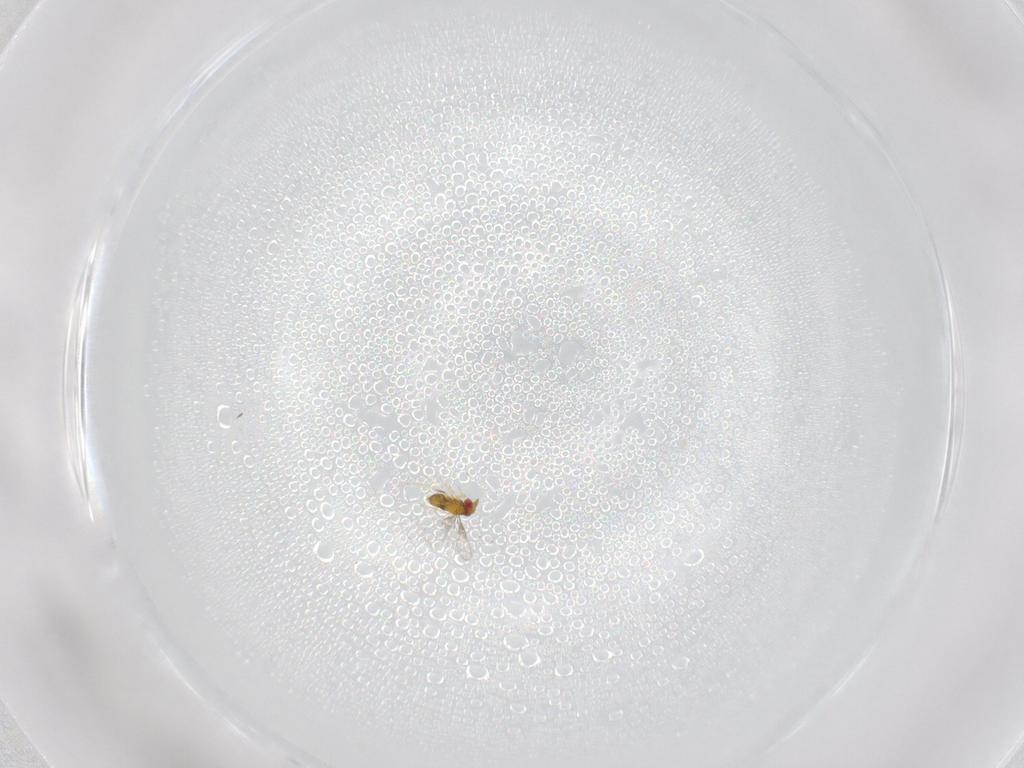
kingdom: Animalia
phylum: Arthropoda
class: Insecta
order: Hymenoptera
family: Trichogrammatidae
